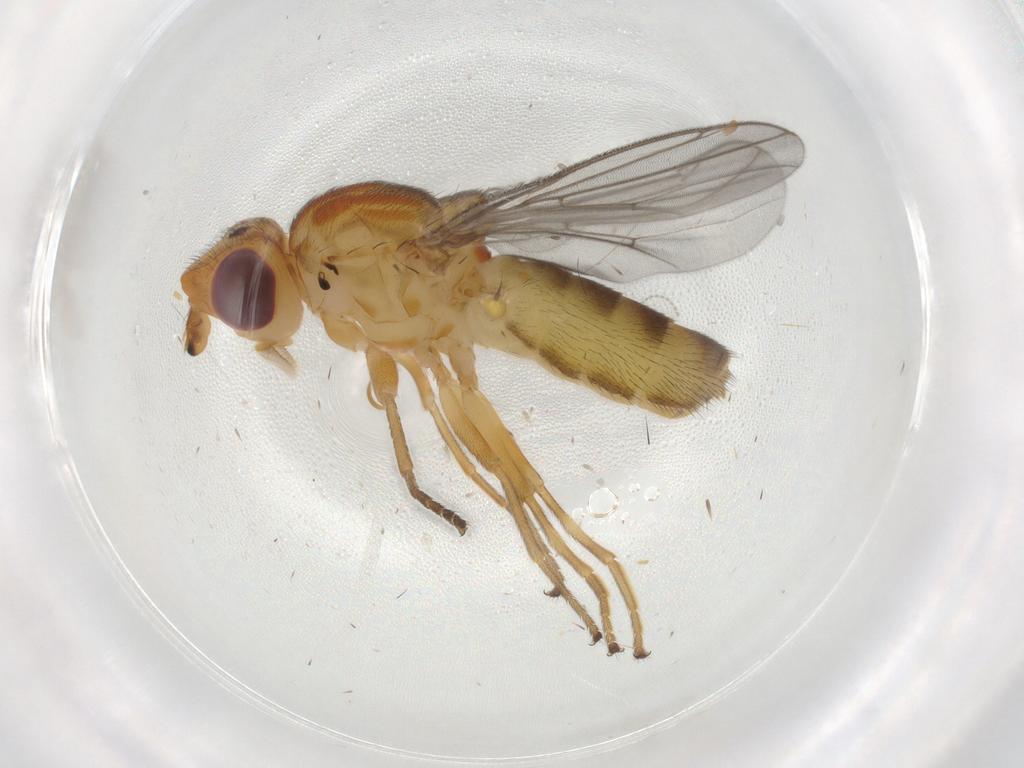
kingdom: Animalia
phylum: Arthropoda
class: Insecta
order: Diptera
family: Chloropidae
